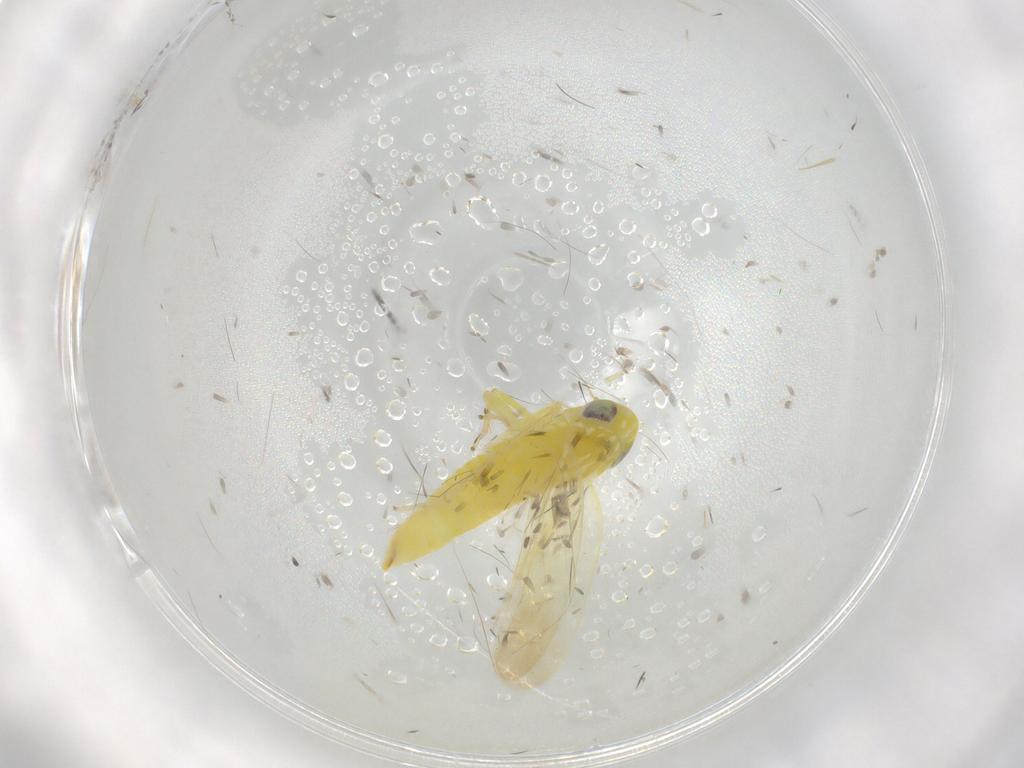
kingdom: Animalia
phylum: Arthropoda
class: Insecta
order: Hemiptera
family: Cicadellidae
